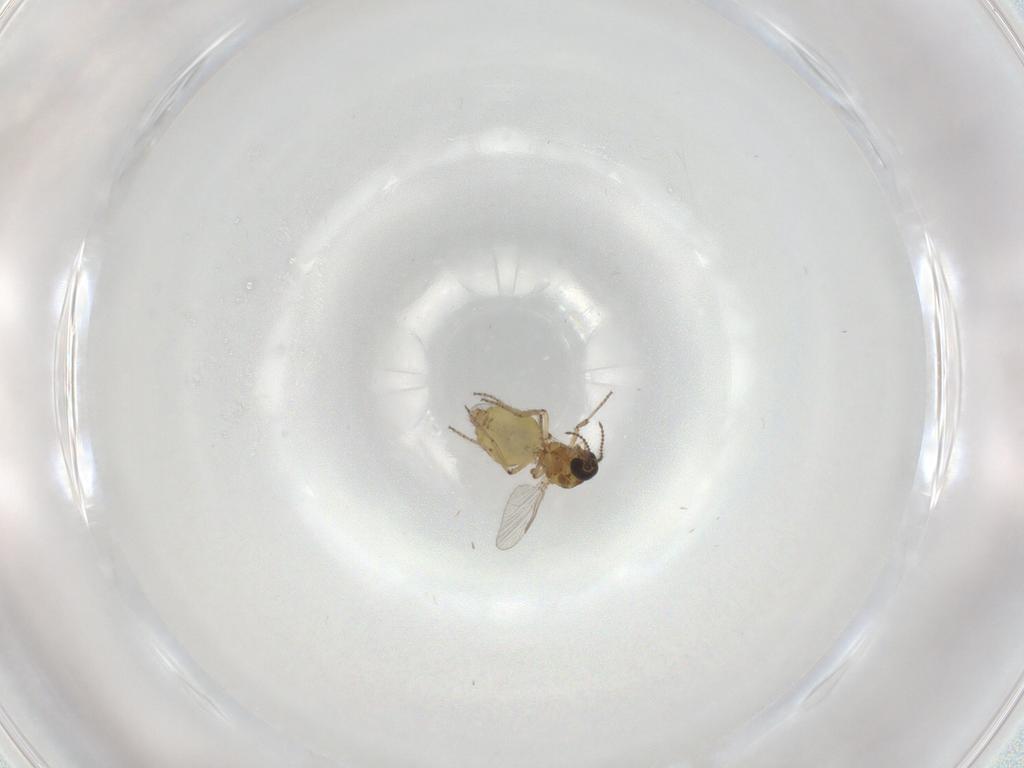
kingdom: Animalia
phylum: Arthropoda
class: Insecta
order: Diptera
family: Ceratopogonidae
